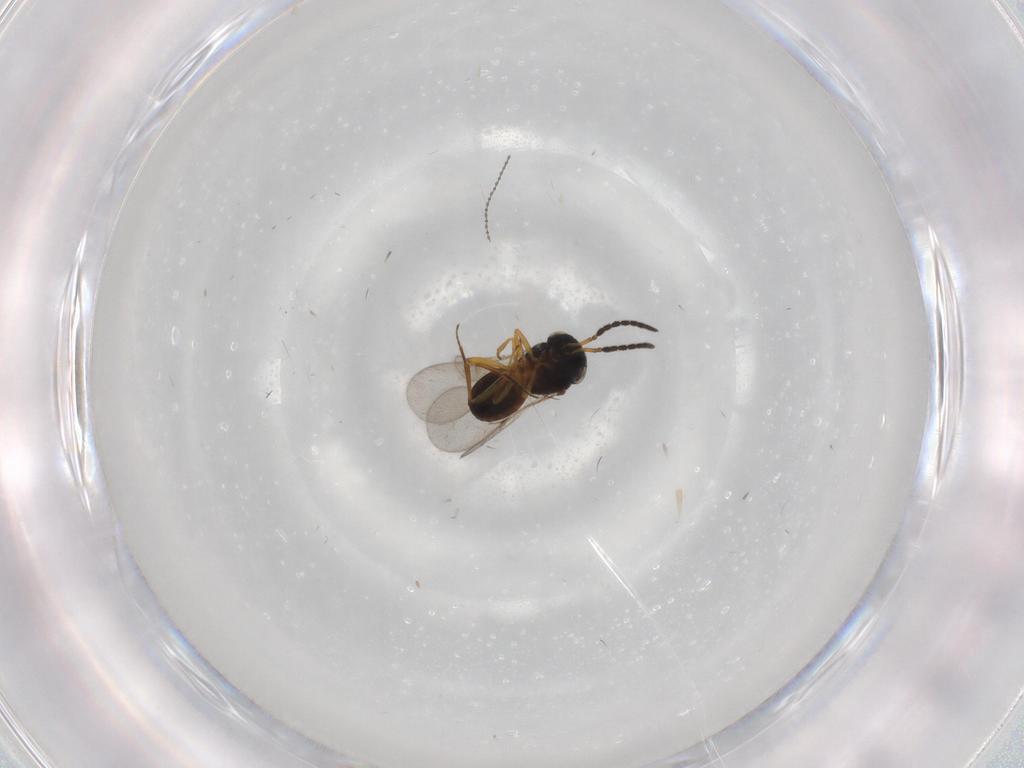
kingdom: Animalia
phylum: Arthropoda
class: Insecta
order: Coleoptera
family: Curculionidae
